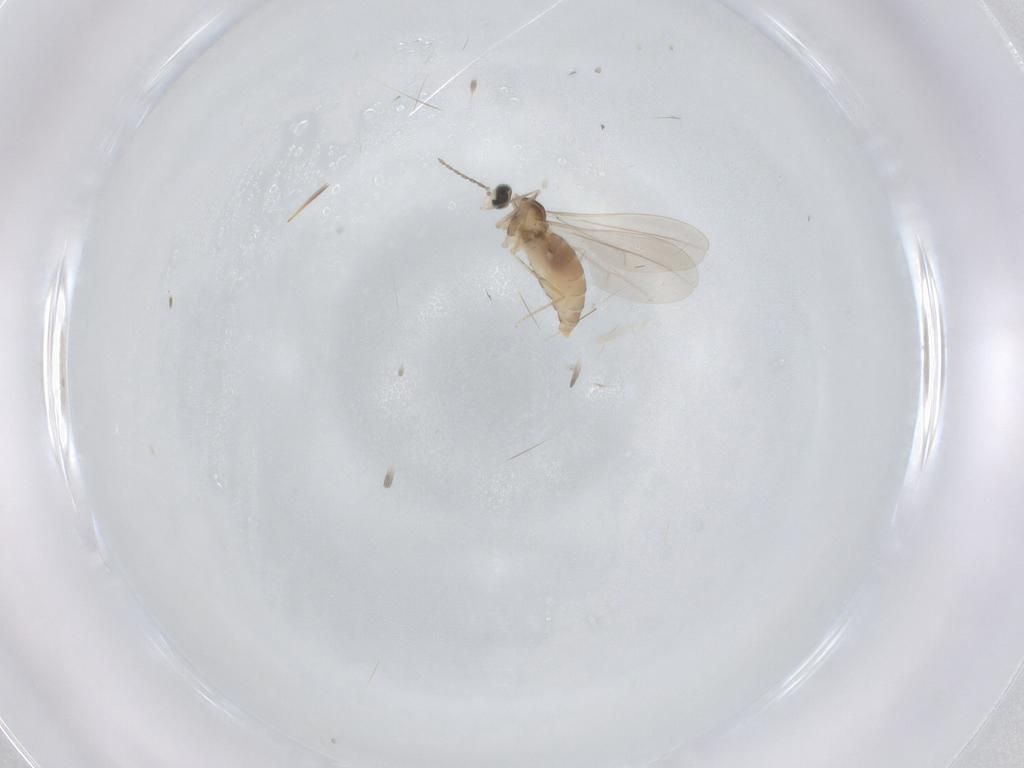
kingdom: Animalia
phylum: Arthropoda
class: Insecta
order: Diptera
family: Cecidomyiidae
